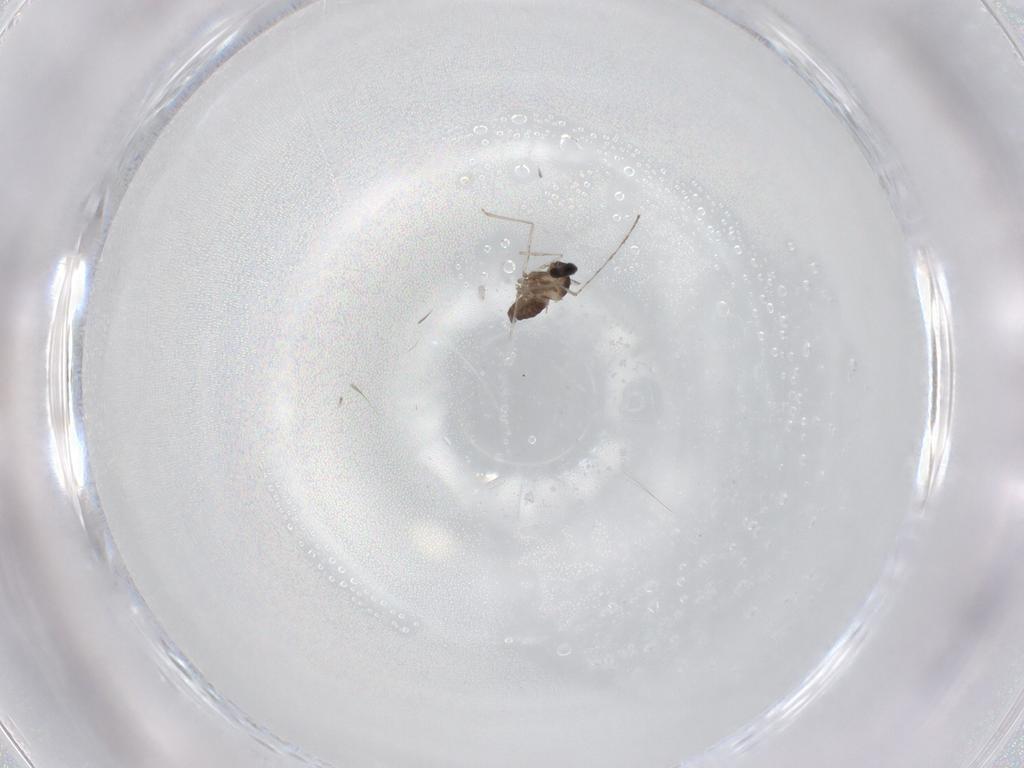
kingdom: Animalia
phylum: Arthropoda
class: Insecta
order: Diptera
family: Cecidomyiidae
